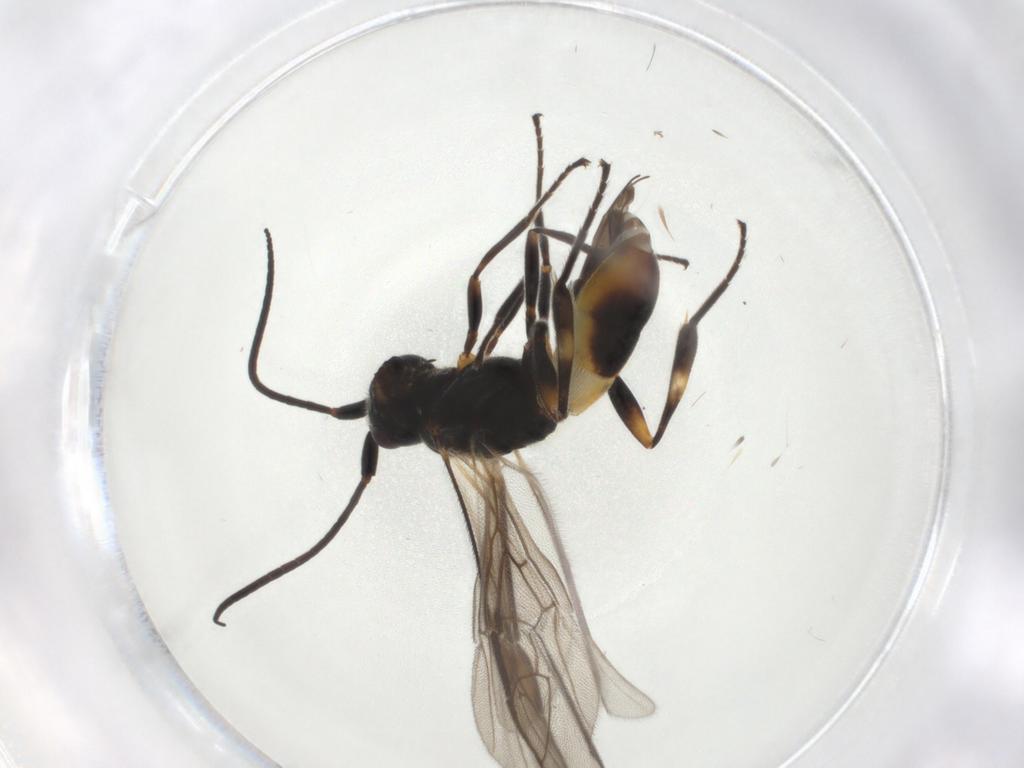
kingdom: Animalia
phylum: Arthropoda
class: Insecta
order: Hymenoptera
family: Braconidae
